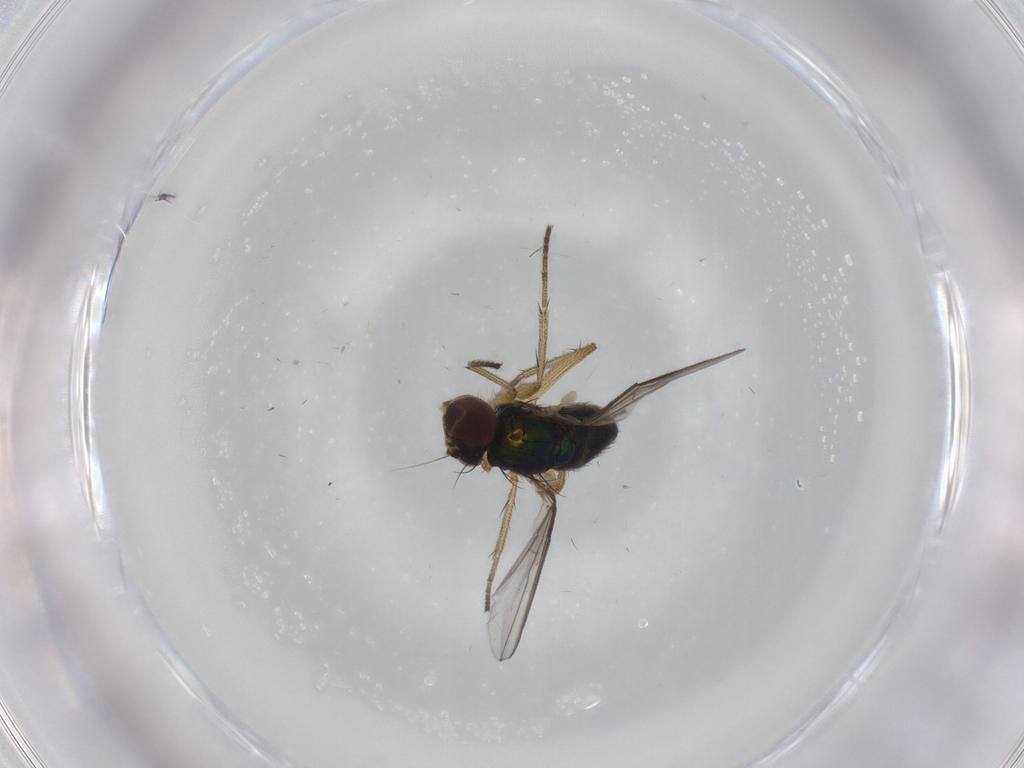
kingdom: Animalia
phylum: Arthropoda
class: Insecta
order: Diptera
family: Dolichopodidae
